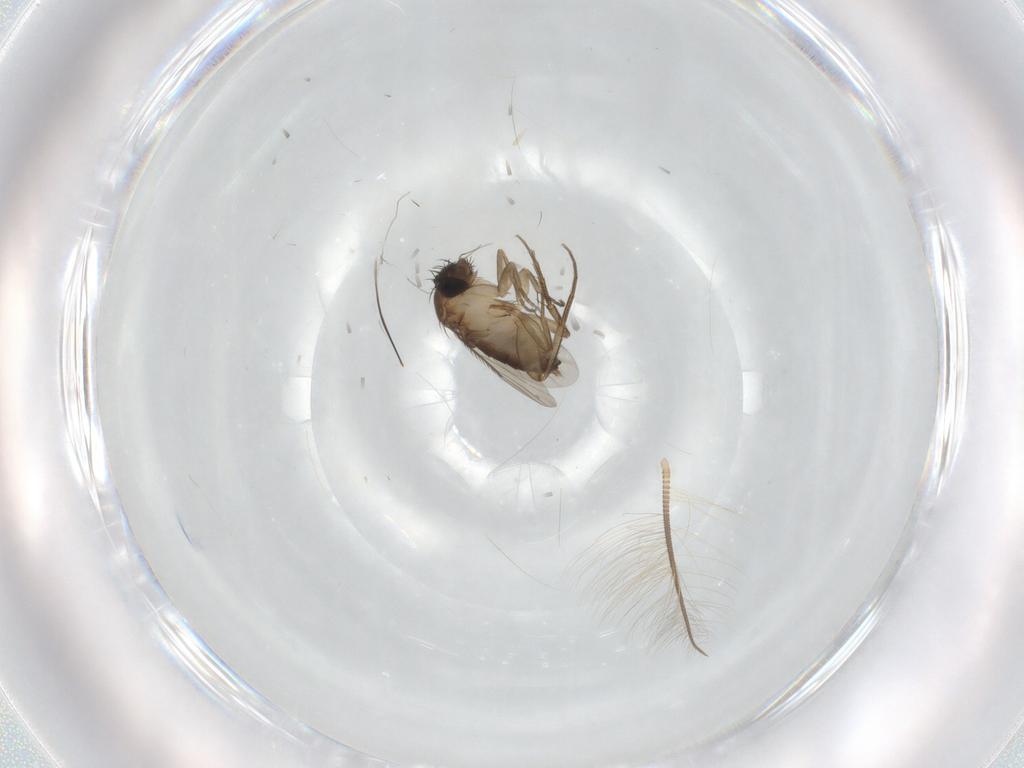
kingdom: Animalia
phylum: Arthropoda
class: Insecta
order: Diptera
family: Phoridae
